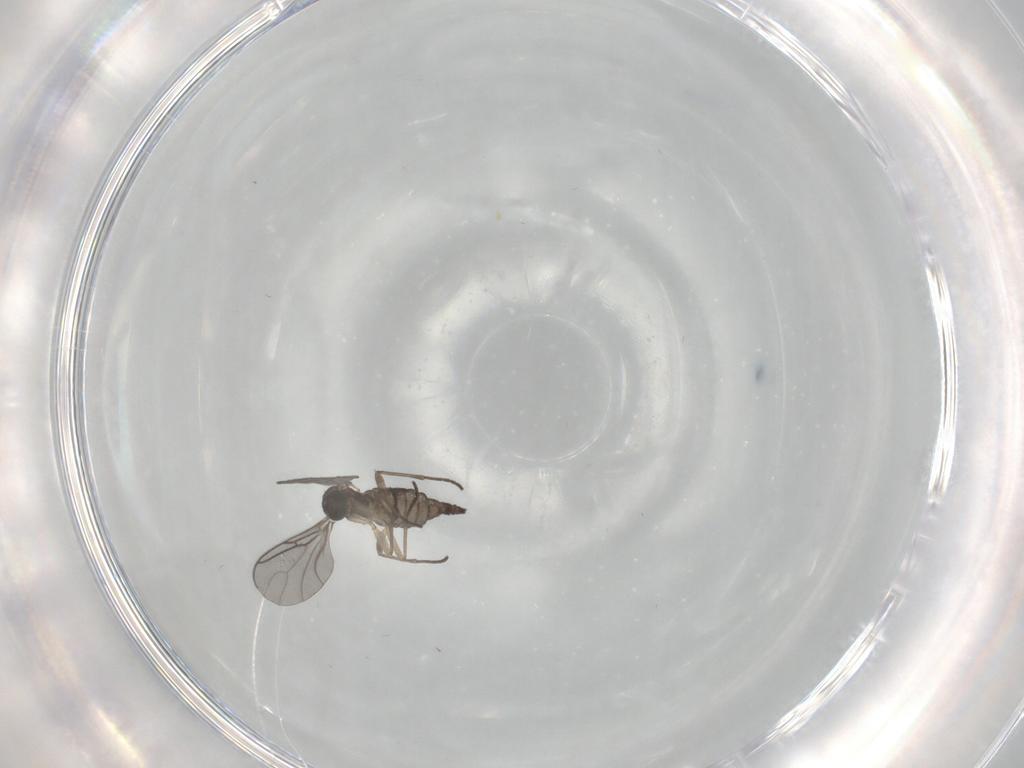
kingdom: Animalia
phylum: Arthropoda
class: Insecta
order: Diptera
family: Sciaridae
